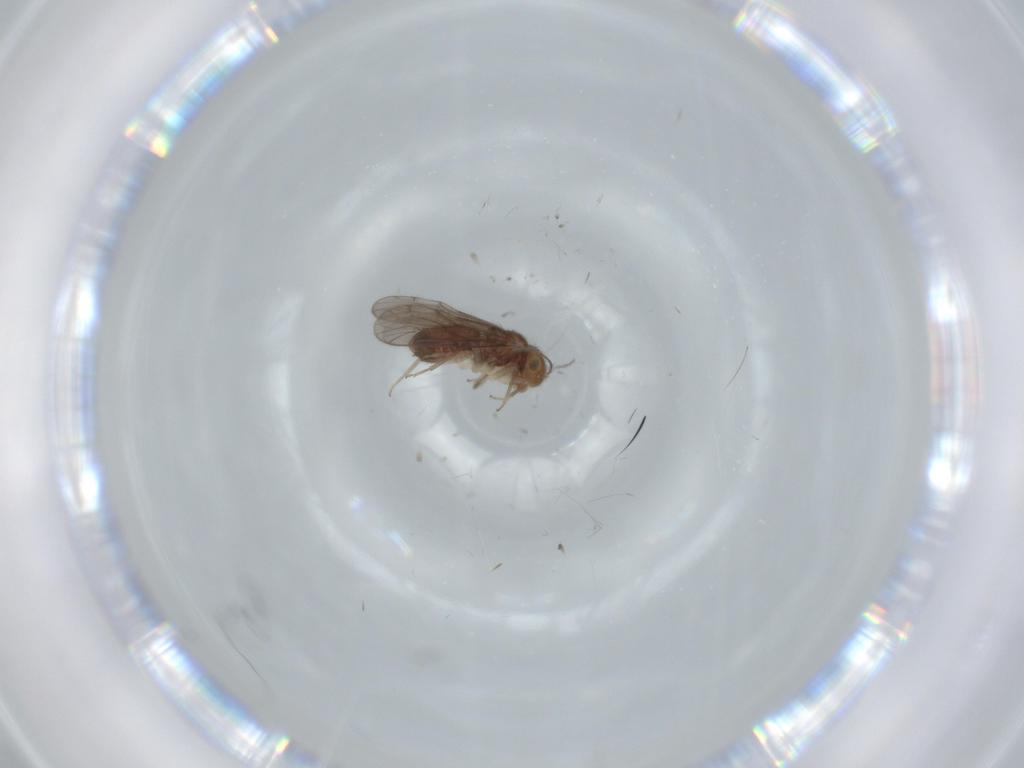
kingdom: Animalia
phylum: Arthropoda
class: Insecta
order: Psocodea
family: Ectopsocidae
